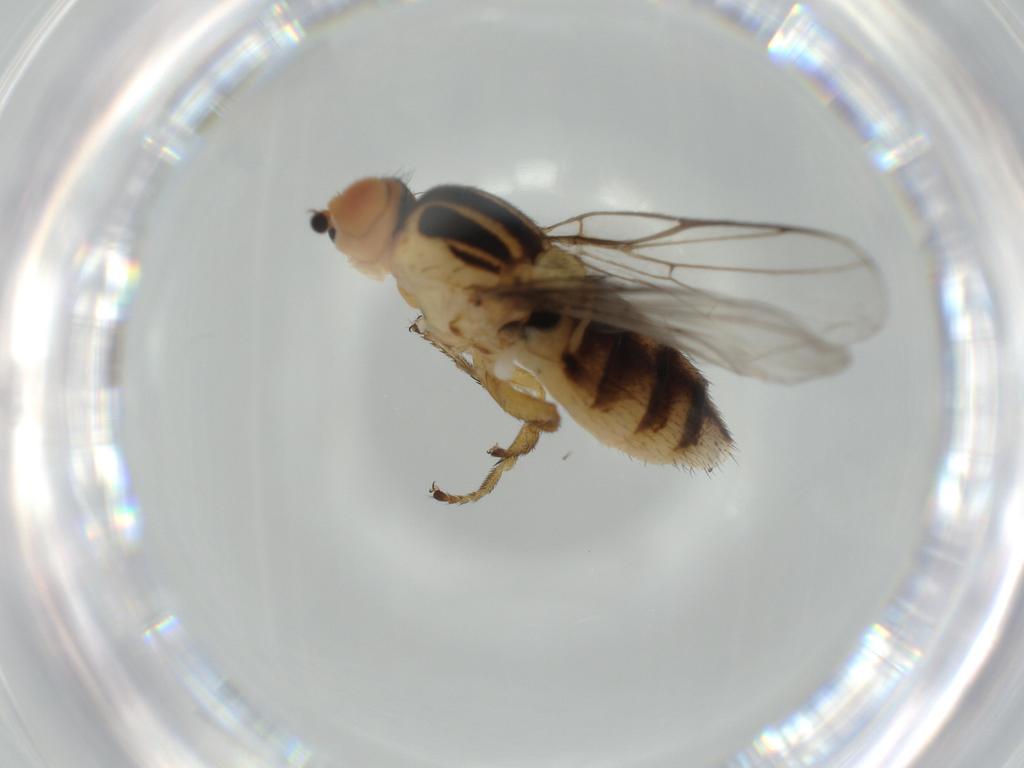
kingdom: Animalia
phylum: Arthropoda
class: Insecta
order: Diptera
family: Chloropidae
